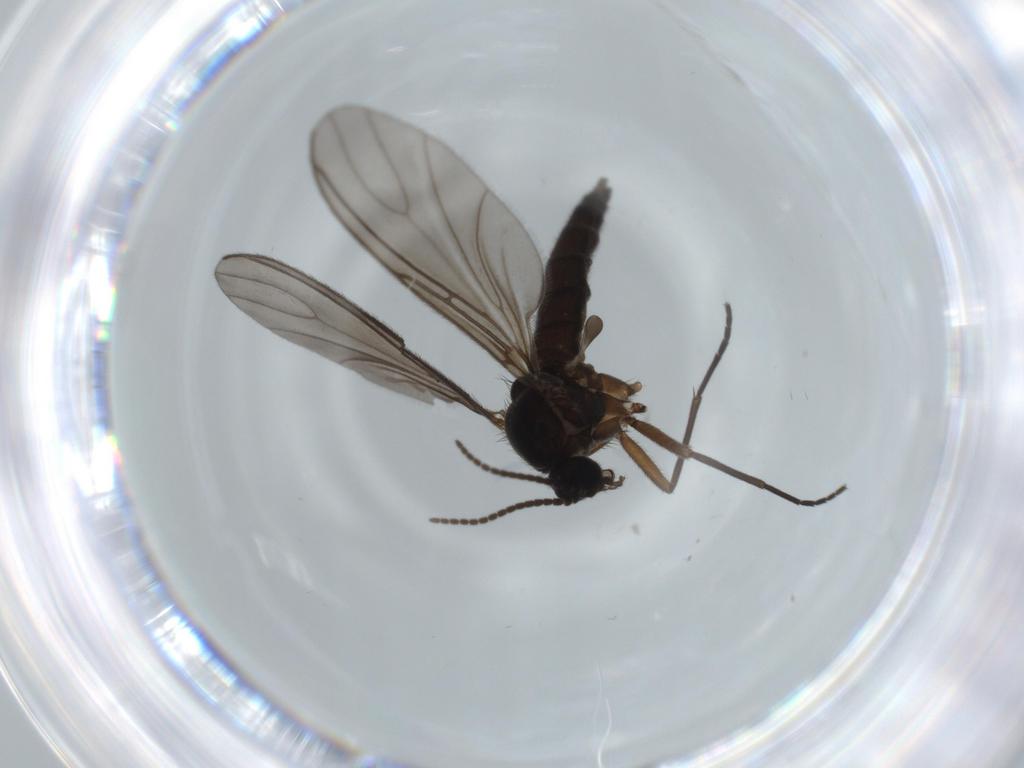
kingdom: Animalia
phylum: Arthropoda
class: Insecta
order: Diptera
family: Sciaridae
